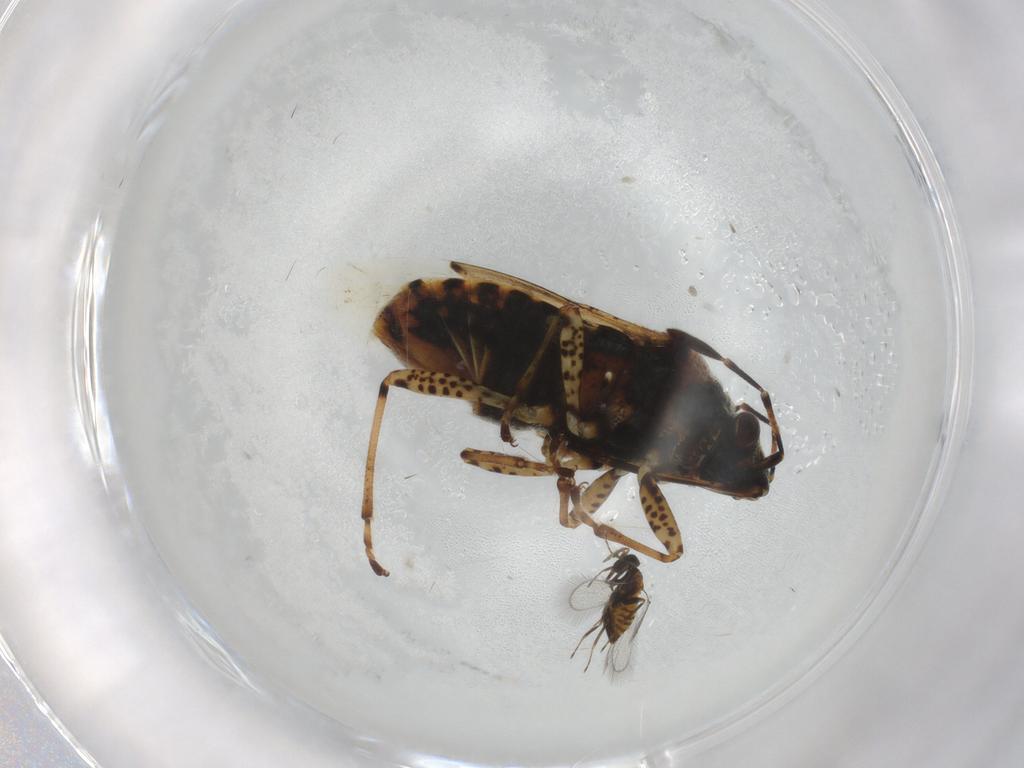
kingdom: Animalia
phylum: Arthropoda
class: Insecta
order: Hemiptera
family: Lygaeidae
